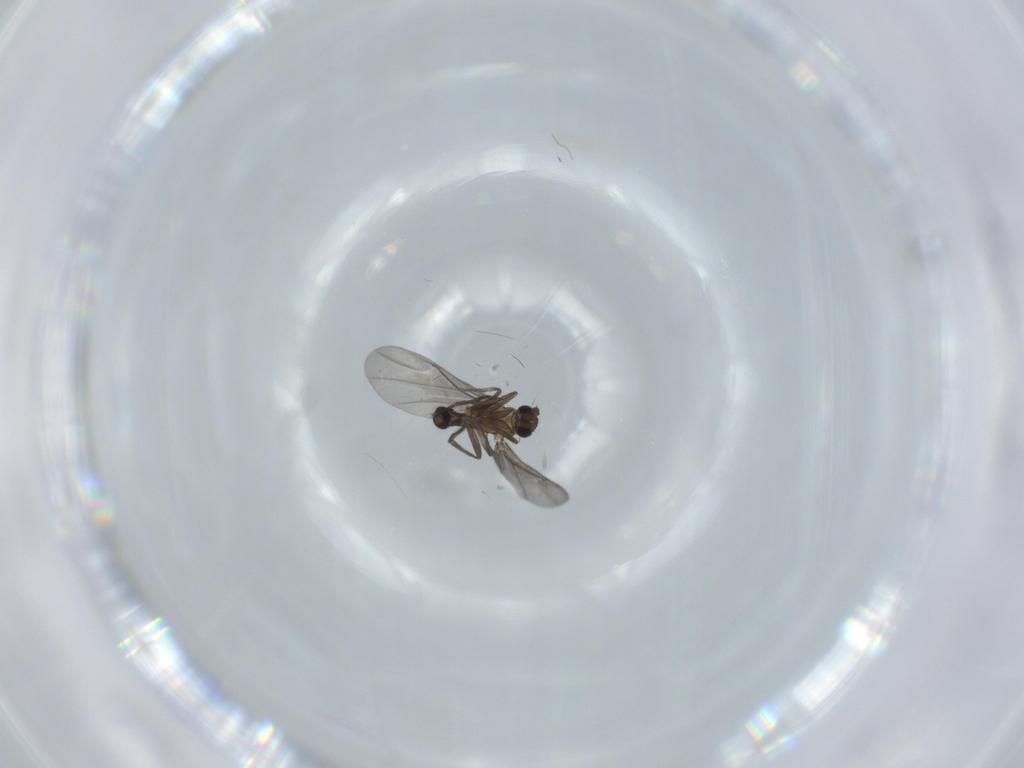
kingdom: Animalia
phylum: Arthropoda
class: Insecta
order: Diptera
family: Phoridae
